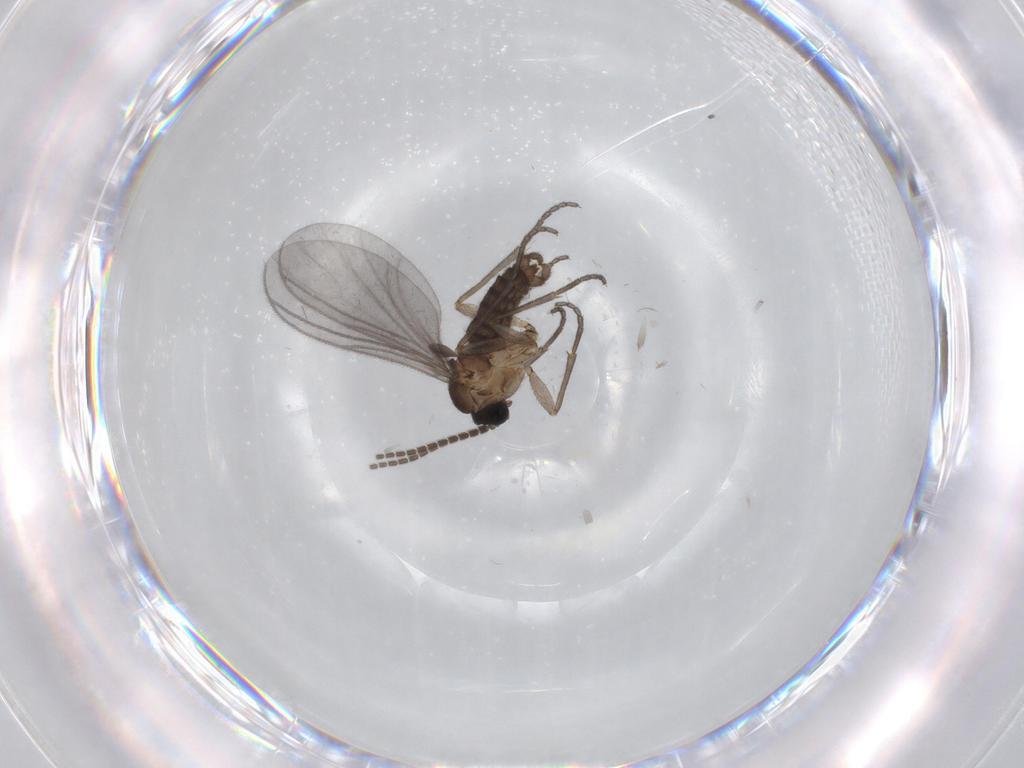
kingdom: Animalia
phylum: Arthropoda
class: Insecta
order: Diptera
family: Sciaridae
